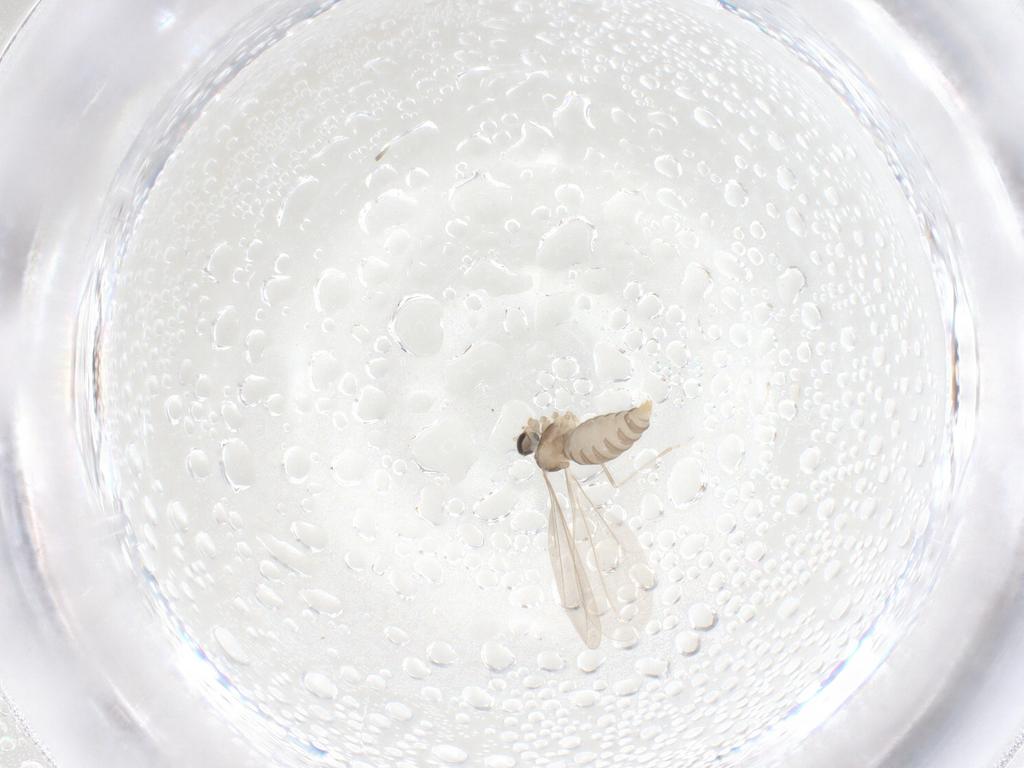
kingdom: Animalia
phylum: Arthropoda
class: Insecta
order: Diptera
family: Cecidomyiidae
